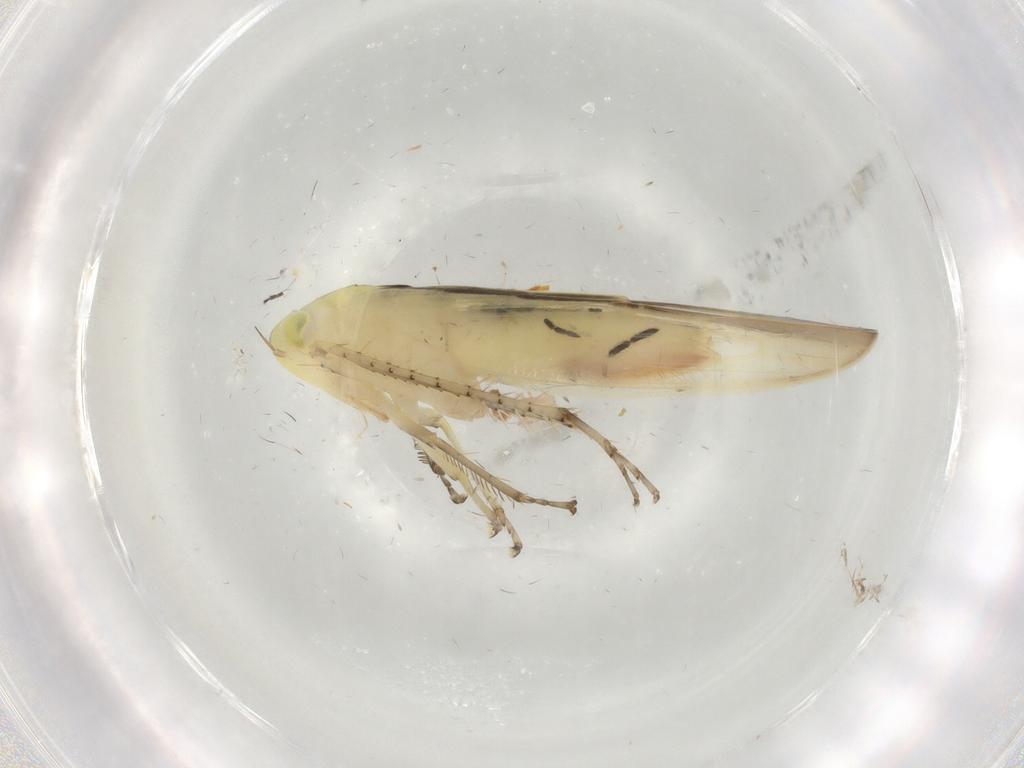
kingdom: Animalia
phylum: Arthropoda
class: Insecta
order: Hemiptera
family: Cicadellidae
